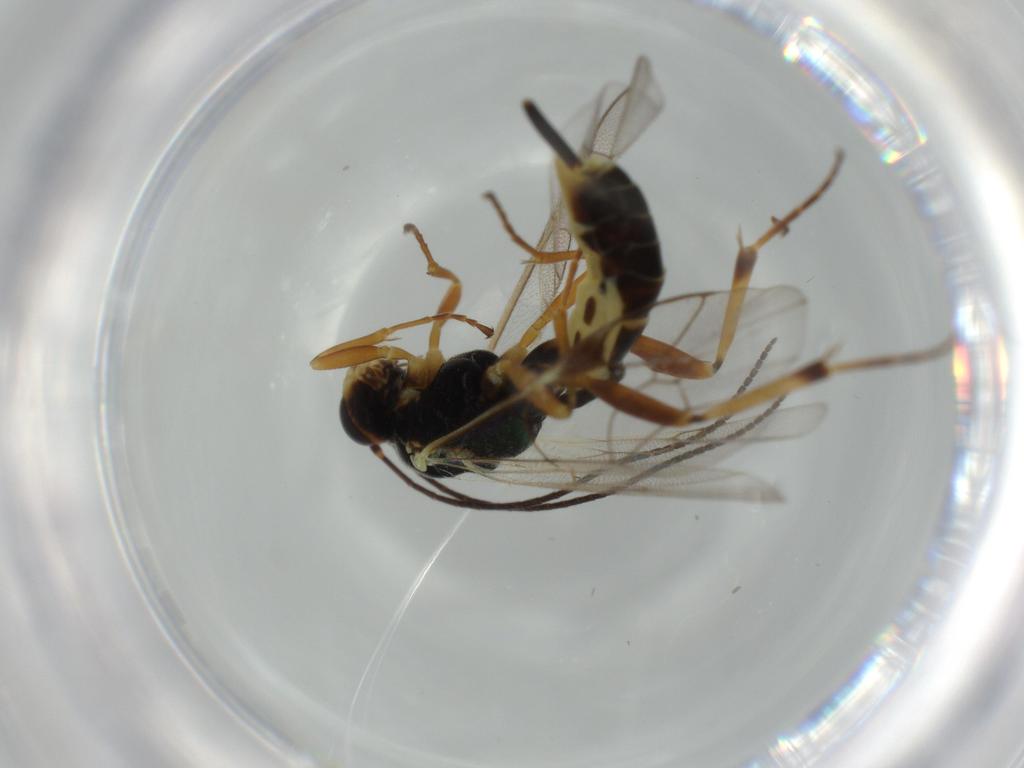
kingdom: Animalia
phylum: Arthropoda
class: Insecta
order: Hymenoptera
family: Ichneumonidae
